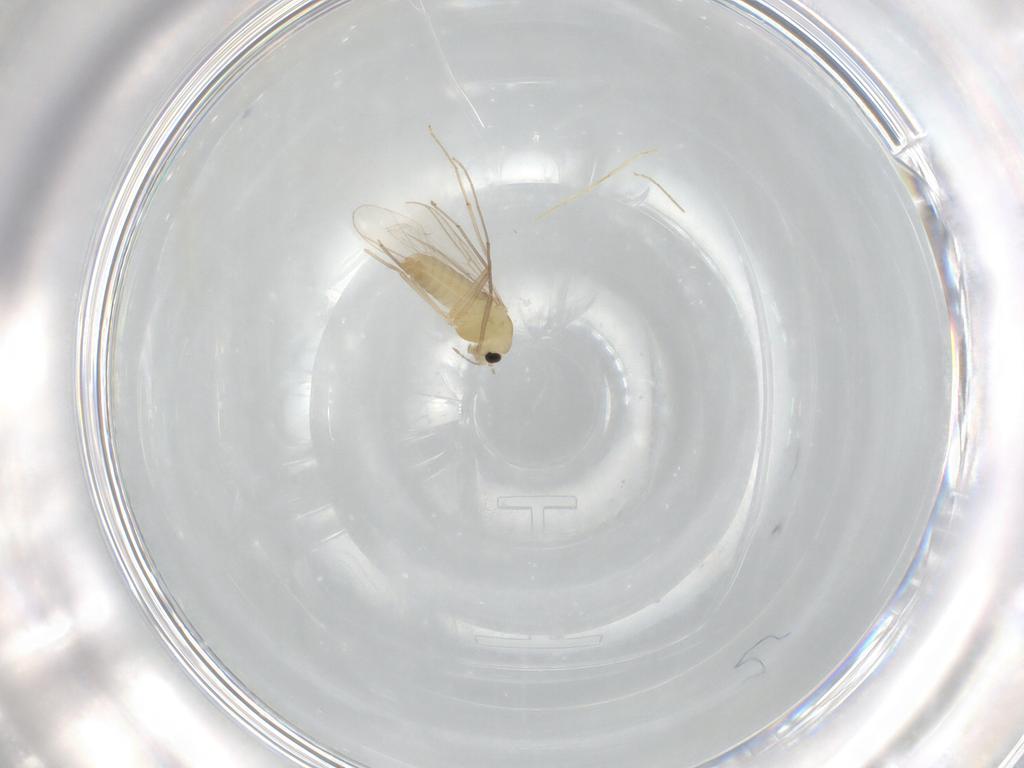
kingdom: Animalia
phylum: Arthropoda
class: Insecta
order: Diptera
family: Chironomidae
